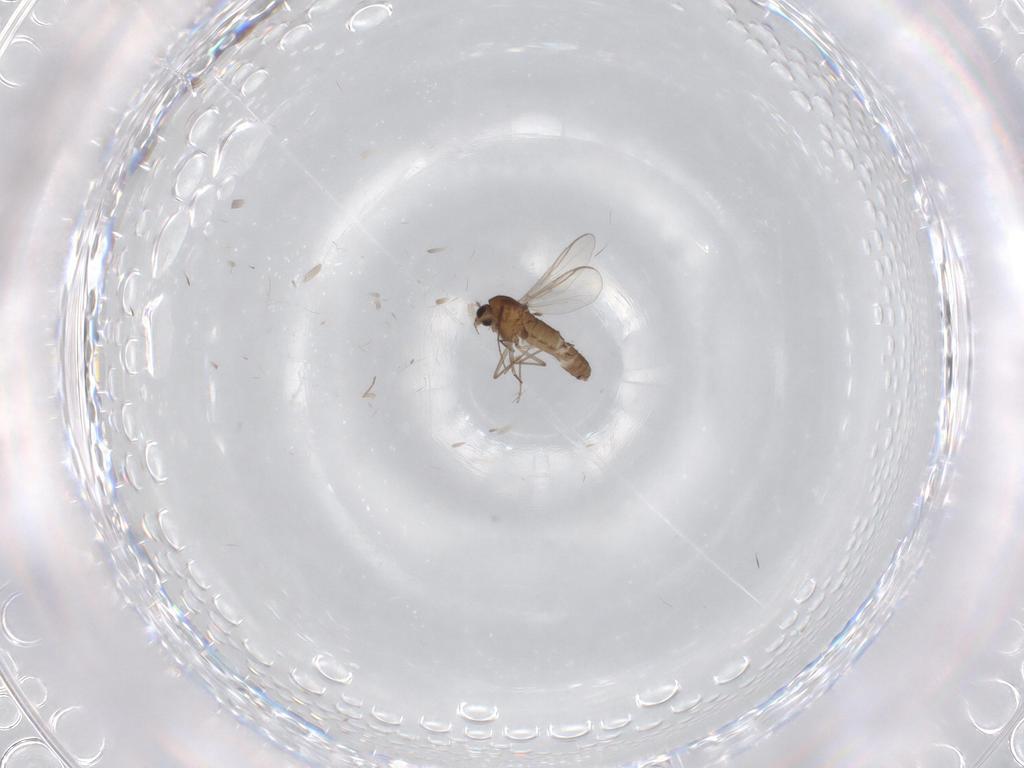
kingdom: Animalia
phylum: Arthropoda
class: Insecta
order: Diptera
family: Chironomidae
